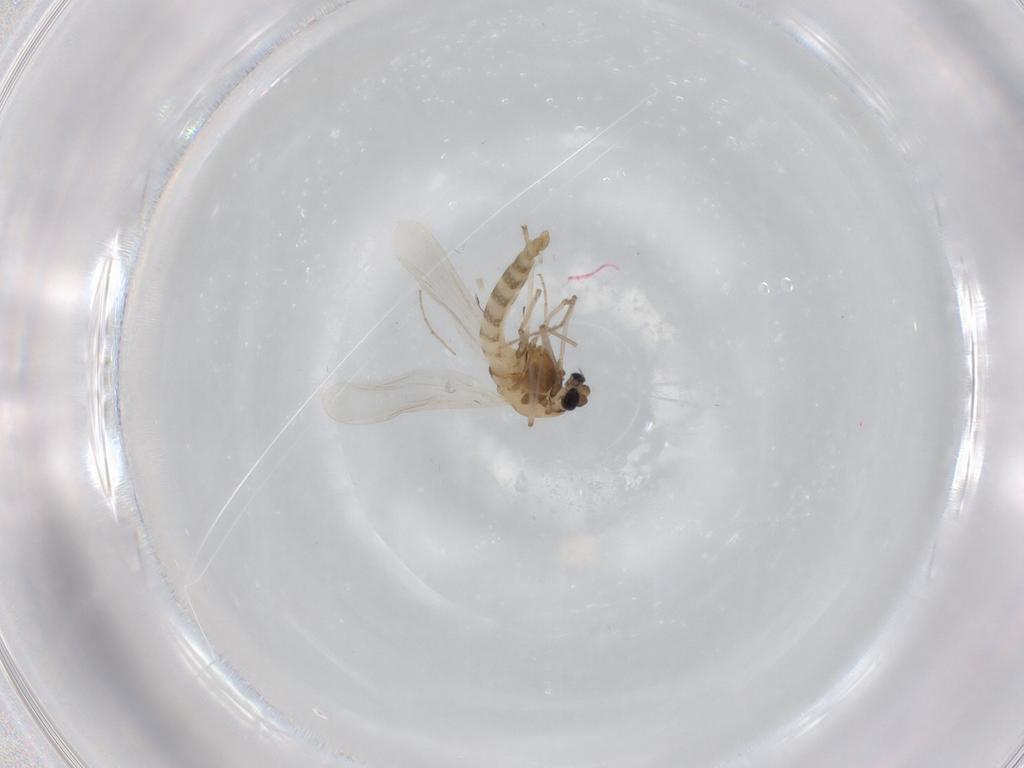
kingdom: Animalia
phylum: Arthropoda
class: Insecta
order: Diptera
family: Chironomidae
